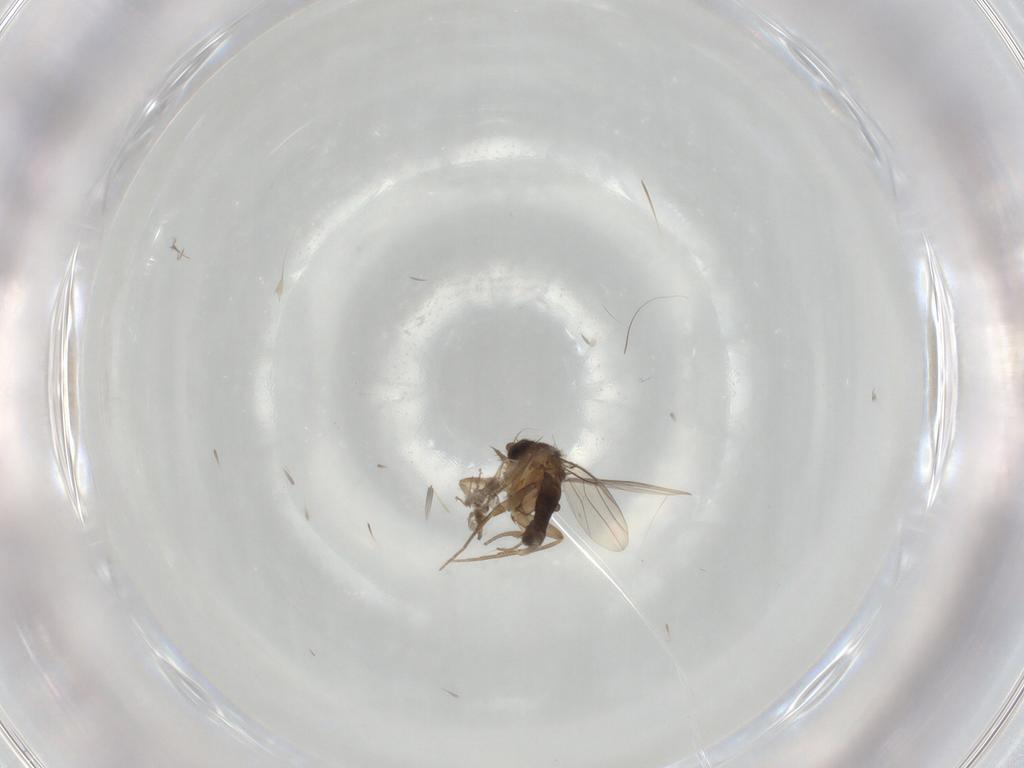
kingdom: Animalia
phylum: Arthropoda
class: Insecta
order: Diptera
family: Phoridae
